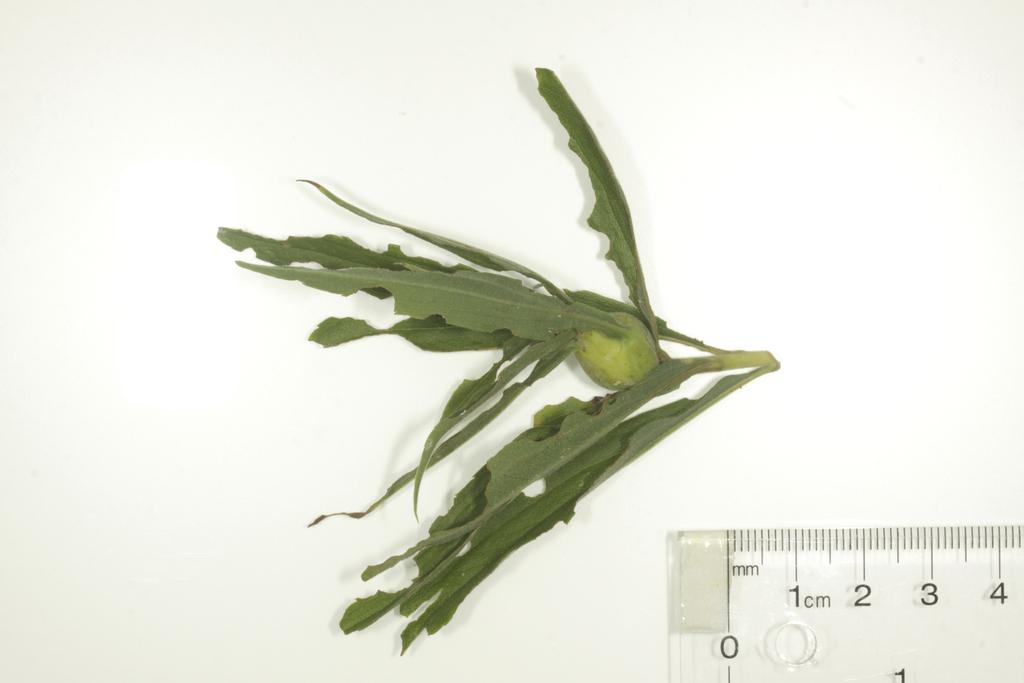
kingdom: Animalia
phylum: Arthropoda
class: Insecta
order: Diptera
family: Cecidomyiidae
